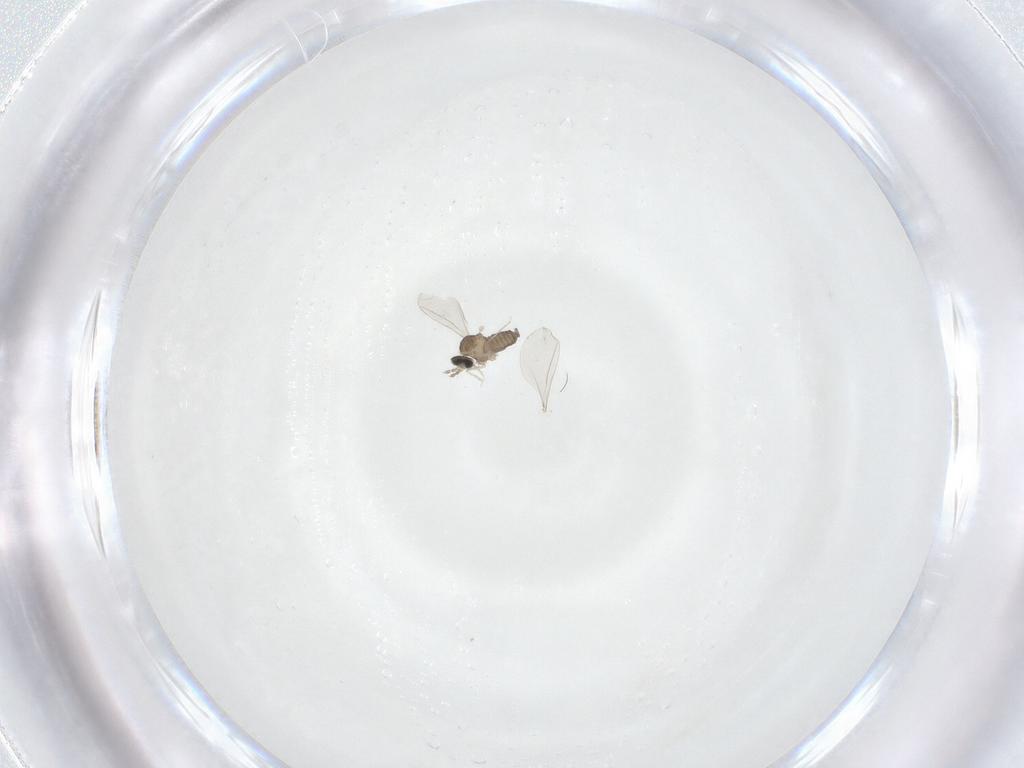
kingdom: Animalia
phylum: Arthropoda
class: Insecta
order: Diptera
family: Cecidomyiidae
